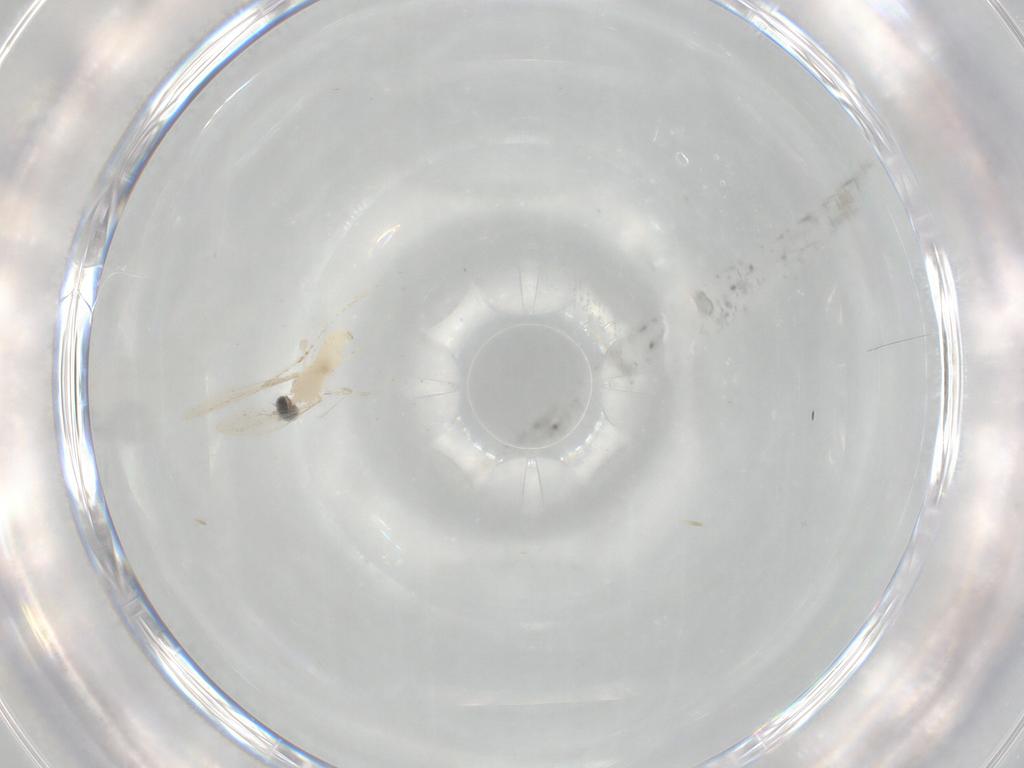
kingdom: Animalia
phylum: Arthropoda
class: Insecta
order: Diptera
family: Cecidomyiidae
